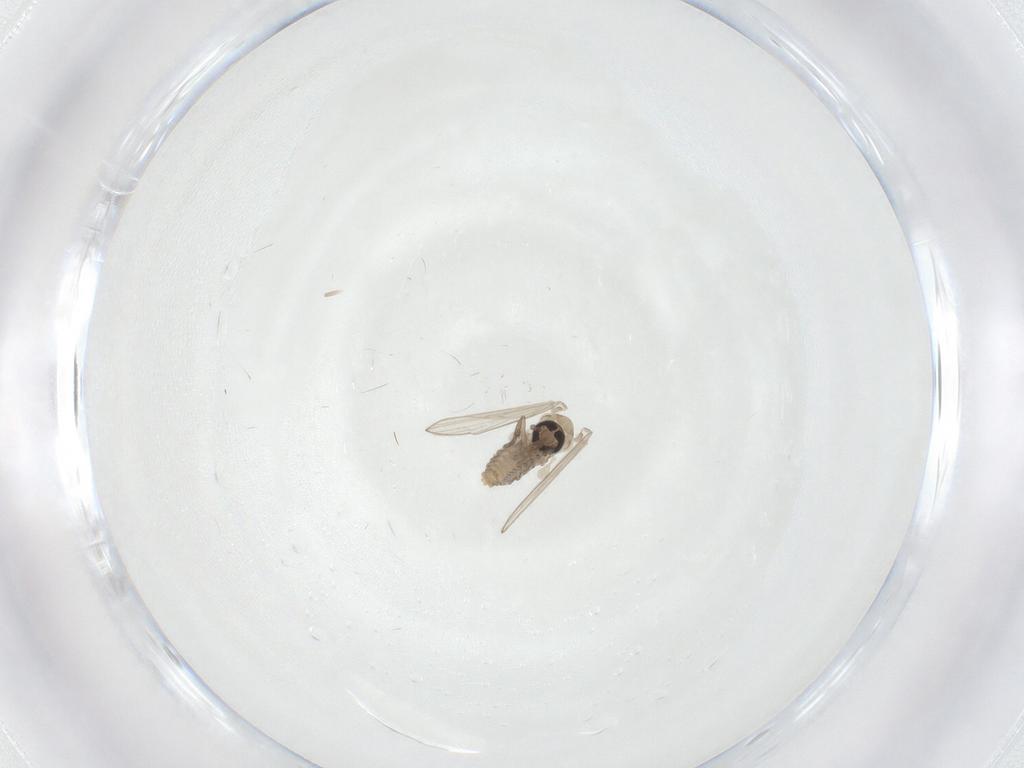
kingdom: Animalia
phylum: Arthropoda
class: Insecta
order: Diptera
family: Psychodidae
